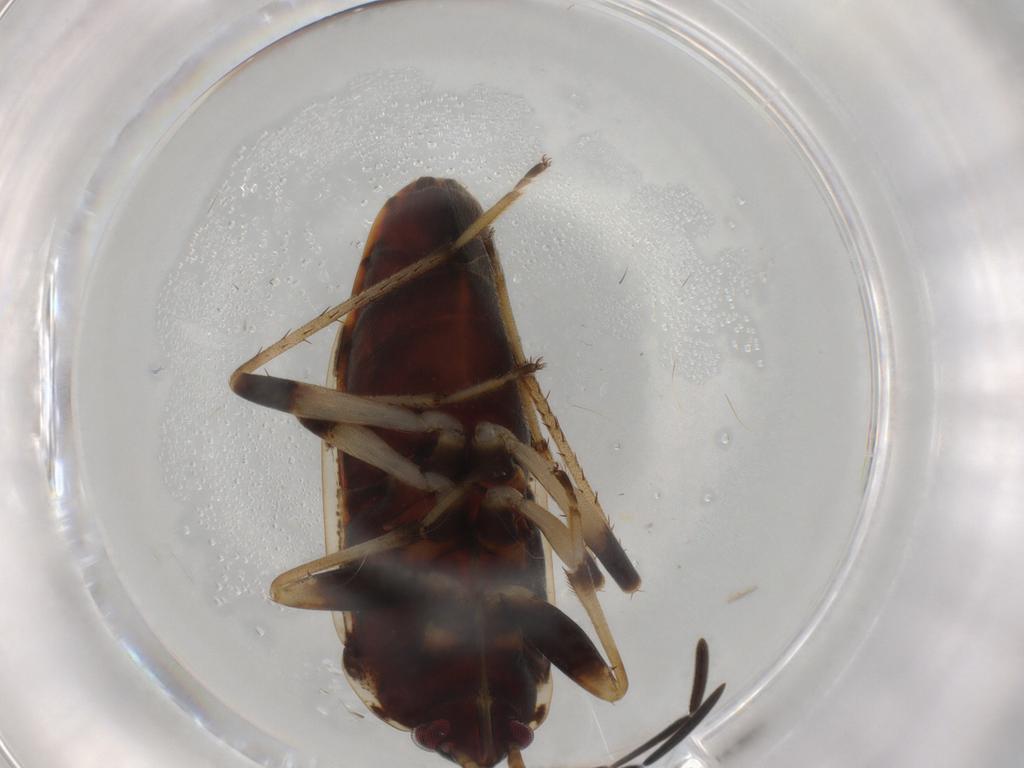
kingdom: Animalia
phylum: Arthropoda
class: Insecta
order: Hemiptera
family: Rhyparochromidae
